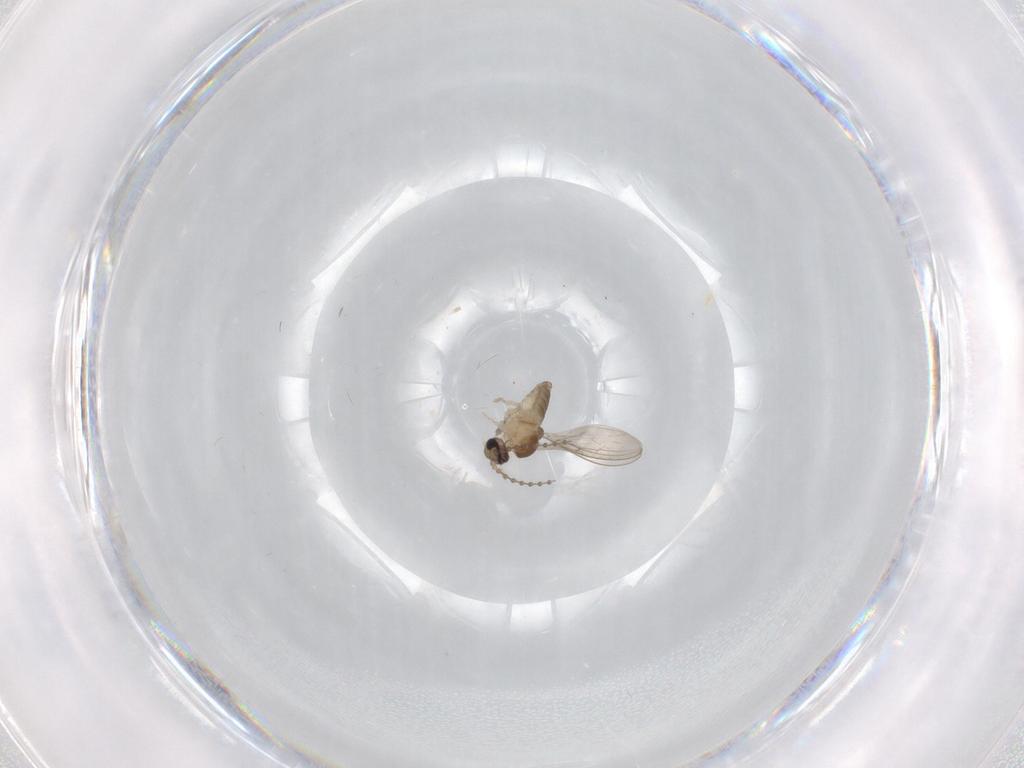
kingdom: Animalia
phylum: Arthropoda
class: Insecta
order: Diptera
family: Cecidomyiidae
